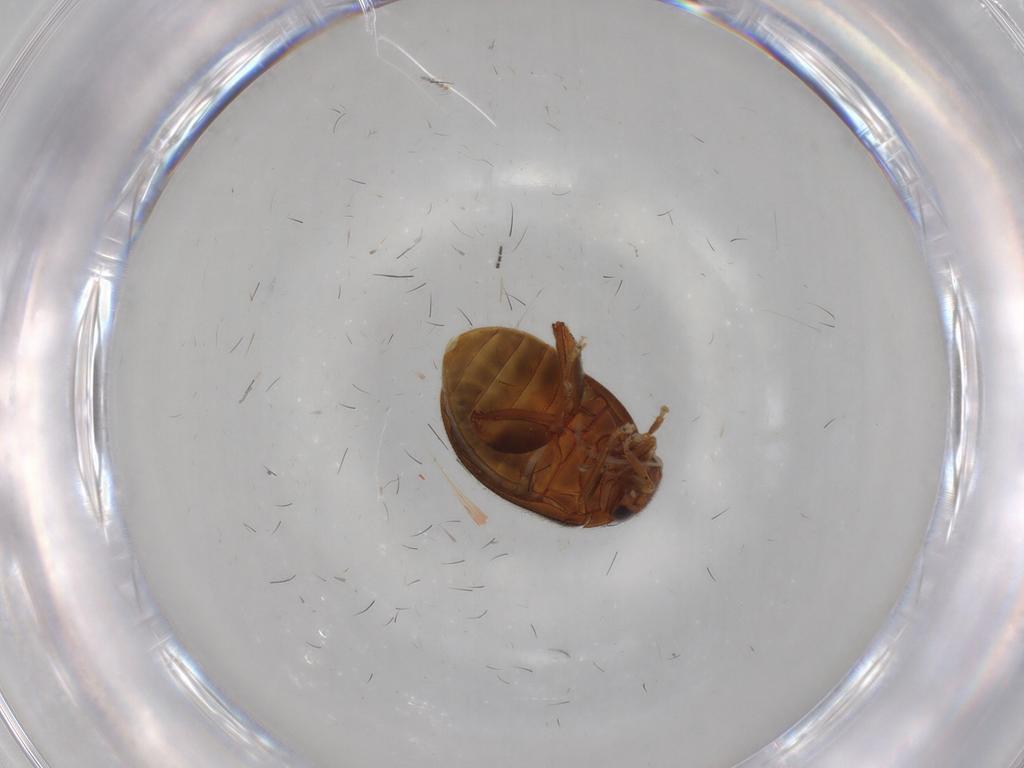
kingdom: Animalia
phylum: Arthropoda
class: Insecta
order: Coleoptera
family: Scirtidae
